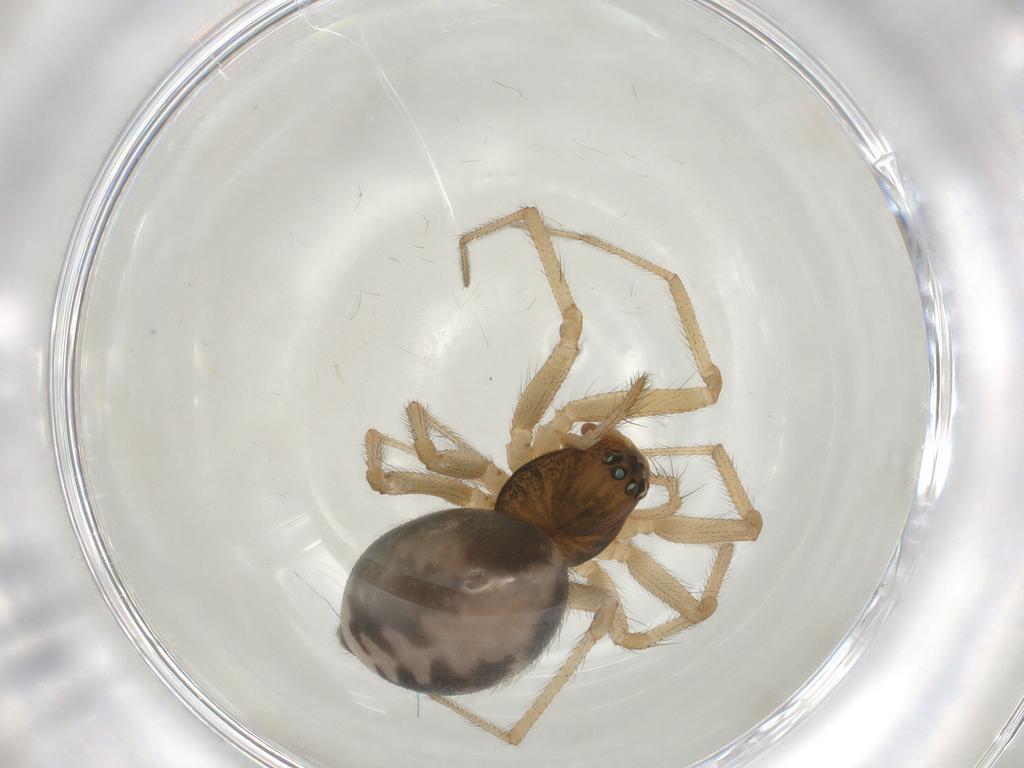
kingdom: Animalia
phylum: Arthropoda
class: Arachnida
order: Araneae
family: Linyphiidae
